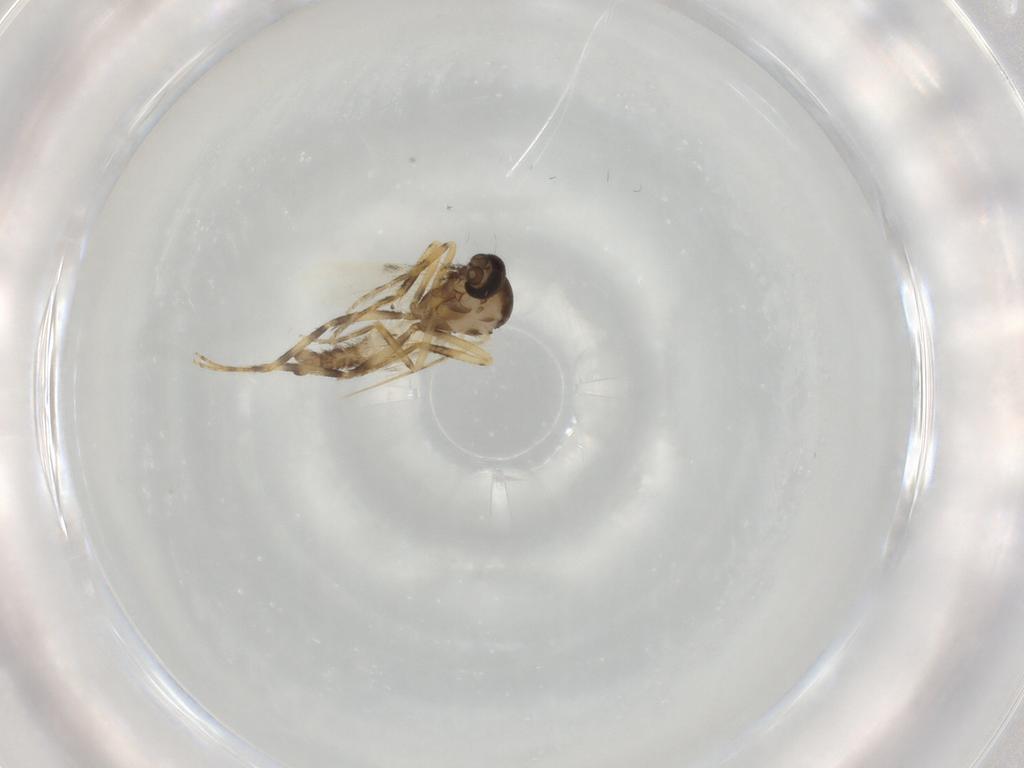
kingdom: Animalia
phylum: Arthropoda
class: Insecta
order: Diptera
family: Ceratopogonidae
